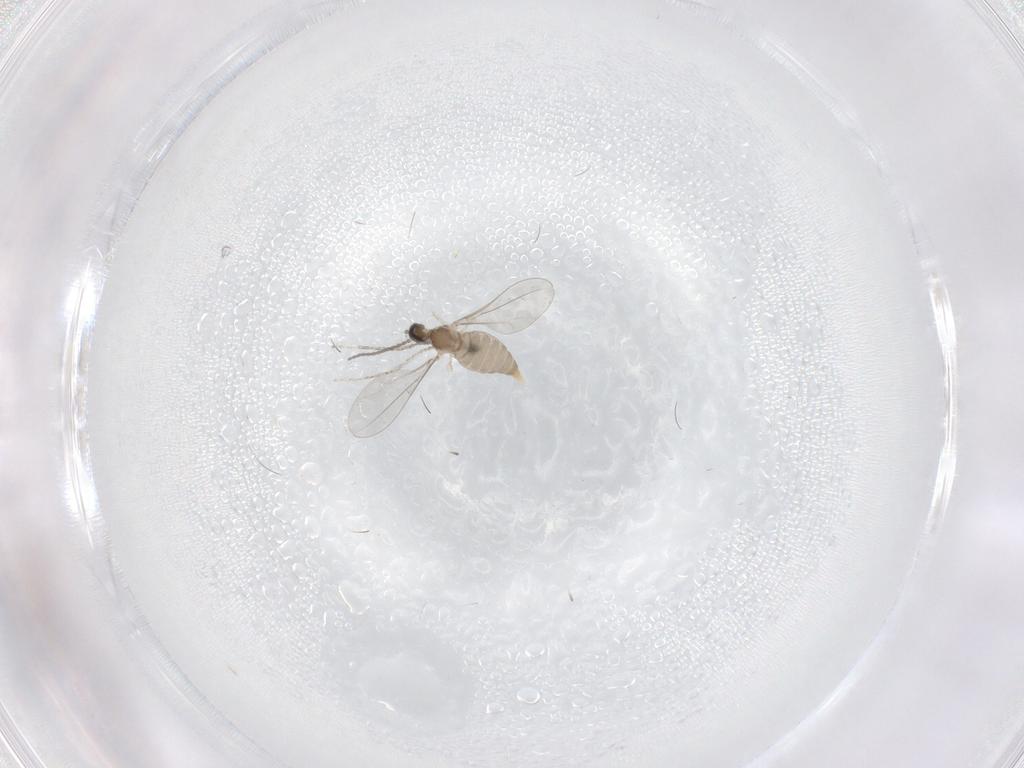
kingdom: Animalia
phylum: Arthropoda
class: Insecta
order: Diptera
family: Cecidomyiidae
